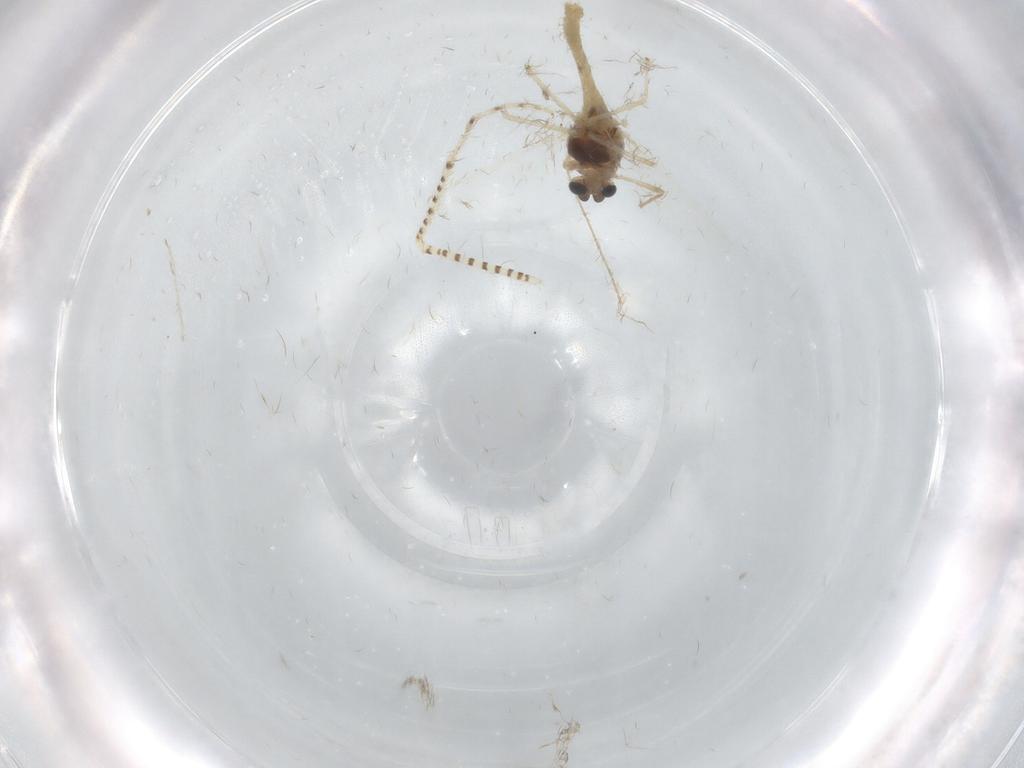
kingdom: Animalia
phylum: Arthropoda
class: Insecta
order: Diptera
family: Chironomidae
